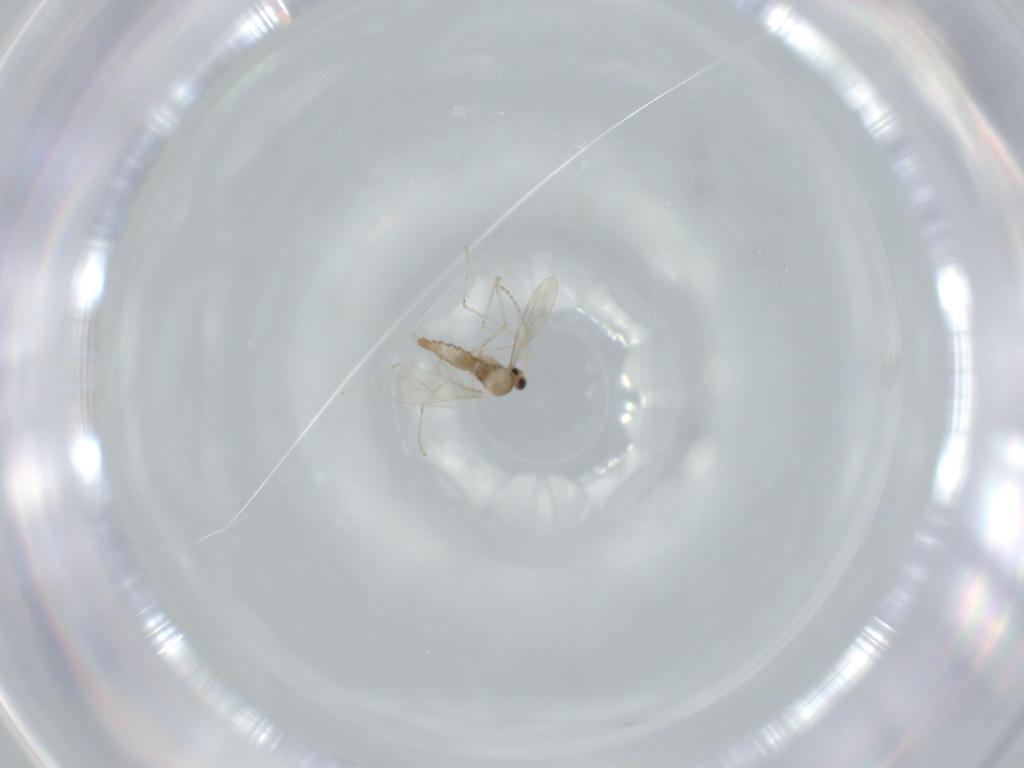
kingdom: Animalia
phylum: Arthropoda
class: Insecta
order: Diptera
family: Cecidomyiidae
